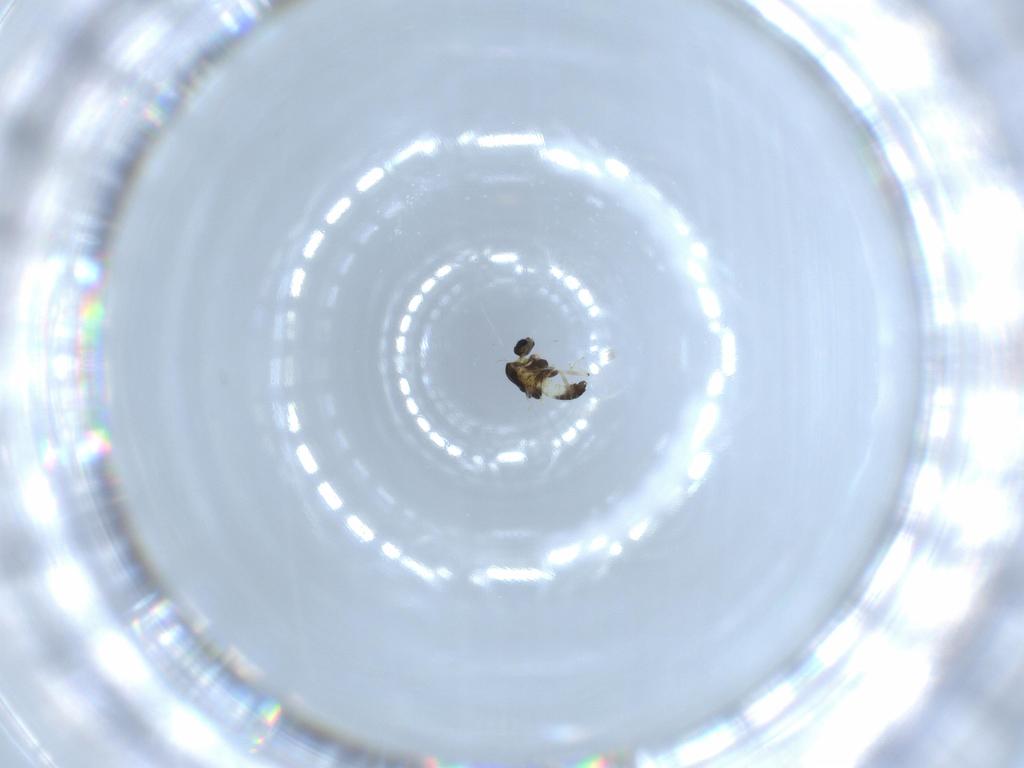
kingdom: Animalia
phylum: Arthropoda
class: Insecta
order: Diptera
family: Chironomidae
